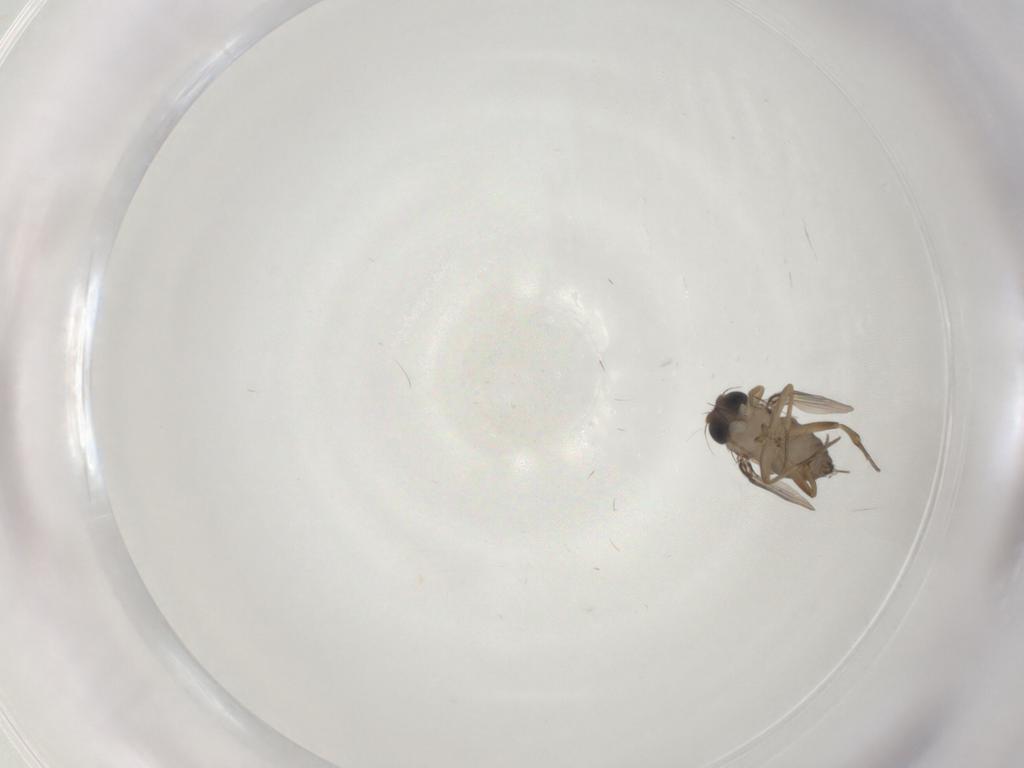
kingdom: Animalia
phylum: Arthropoda
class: Insecta
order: Diptera
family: Phoridae
